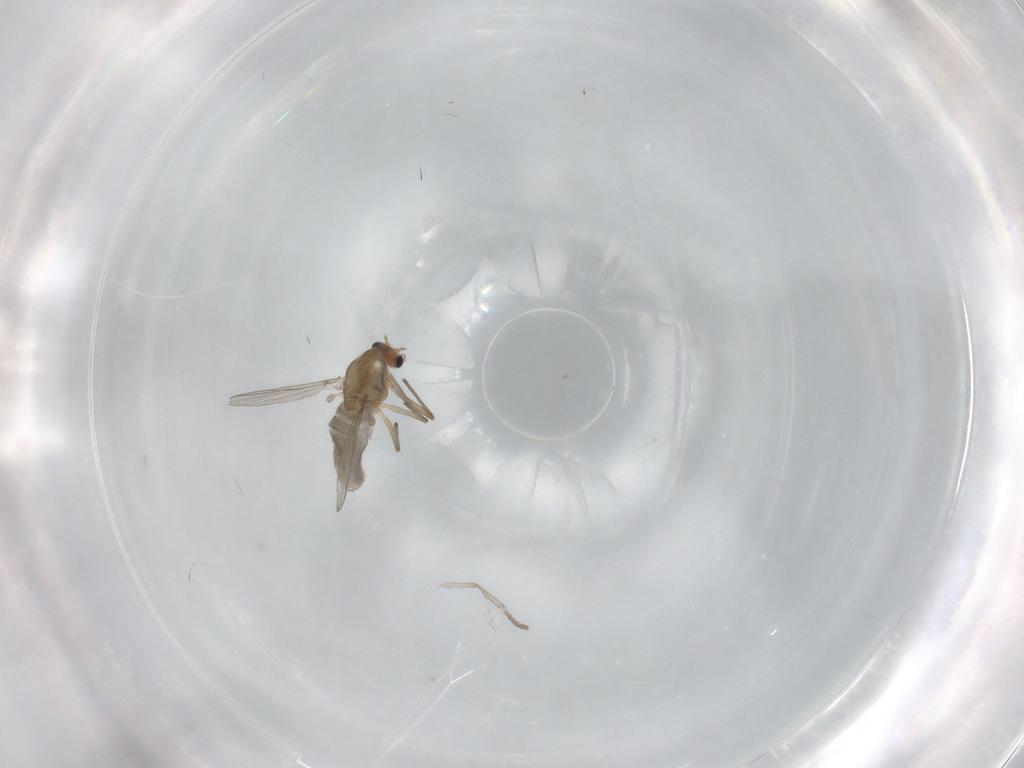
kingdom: Animalia
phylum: Arthropoda
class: Insecta
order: Diptera
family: Chironomidae
